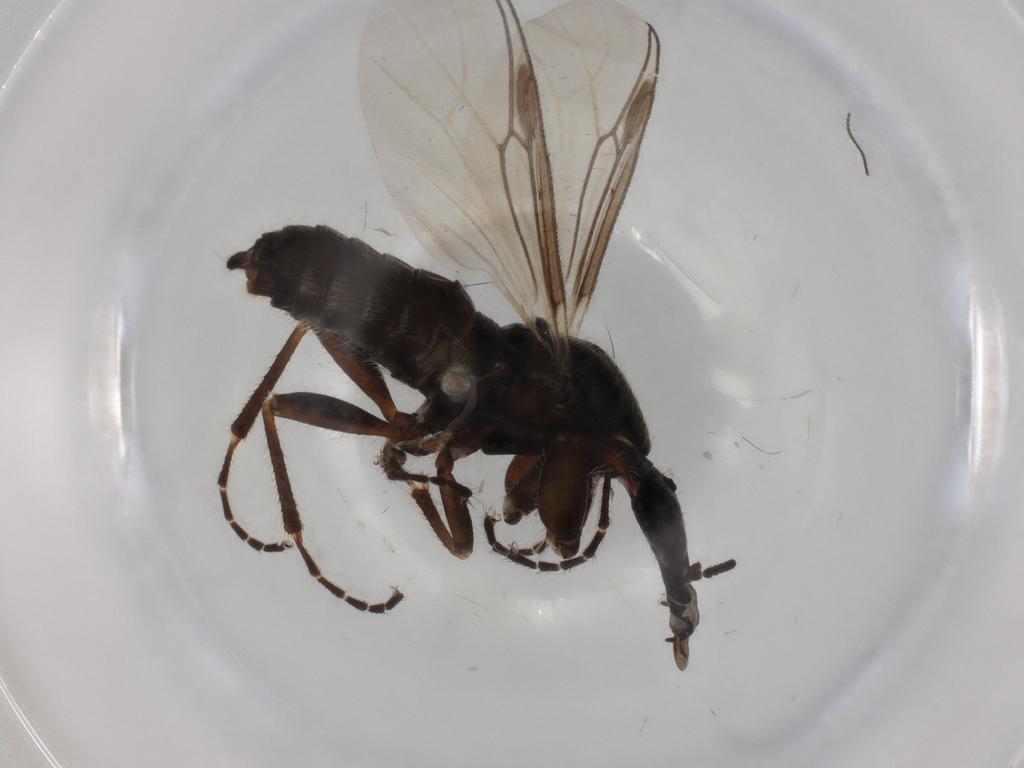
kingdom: Animalia
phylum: Arthropoda
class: Insecta
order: Diptera
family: Bibionidae
